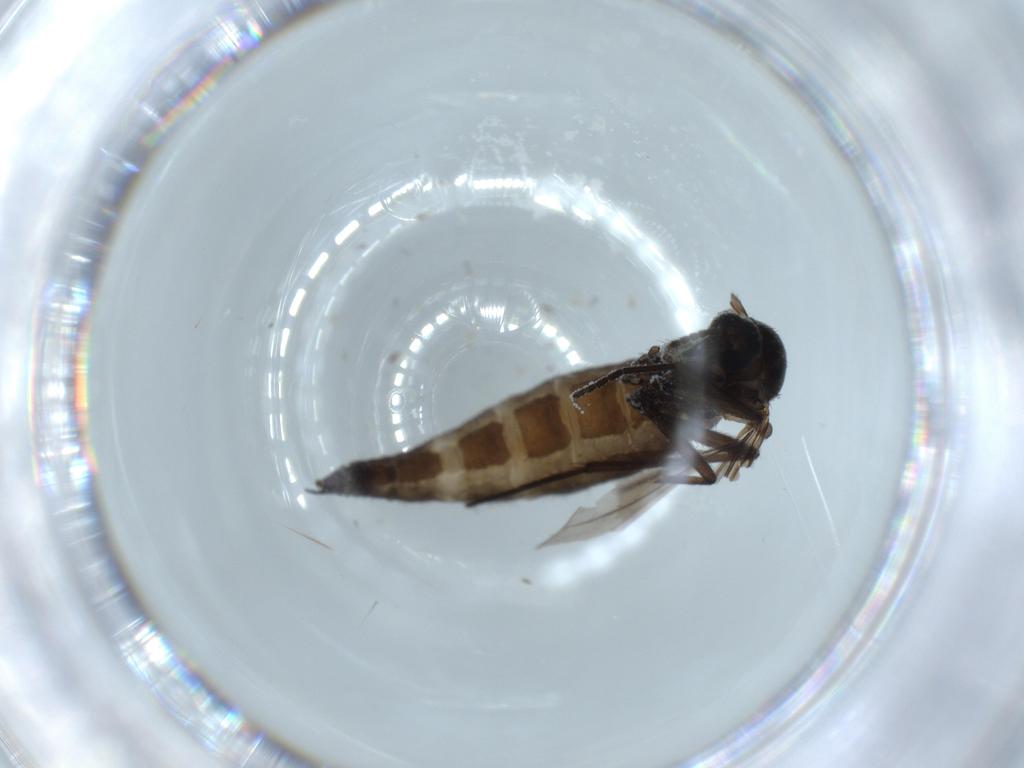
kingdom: Animalia
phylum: Arthropoda
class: Insecta
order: Diptera
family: Sciaridae
